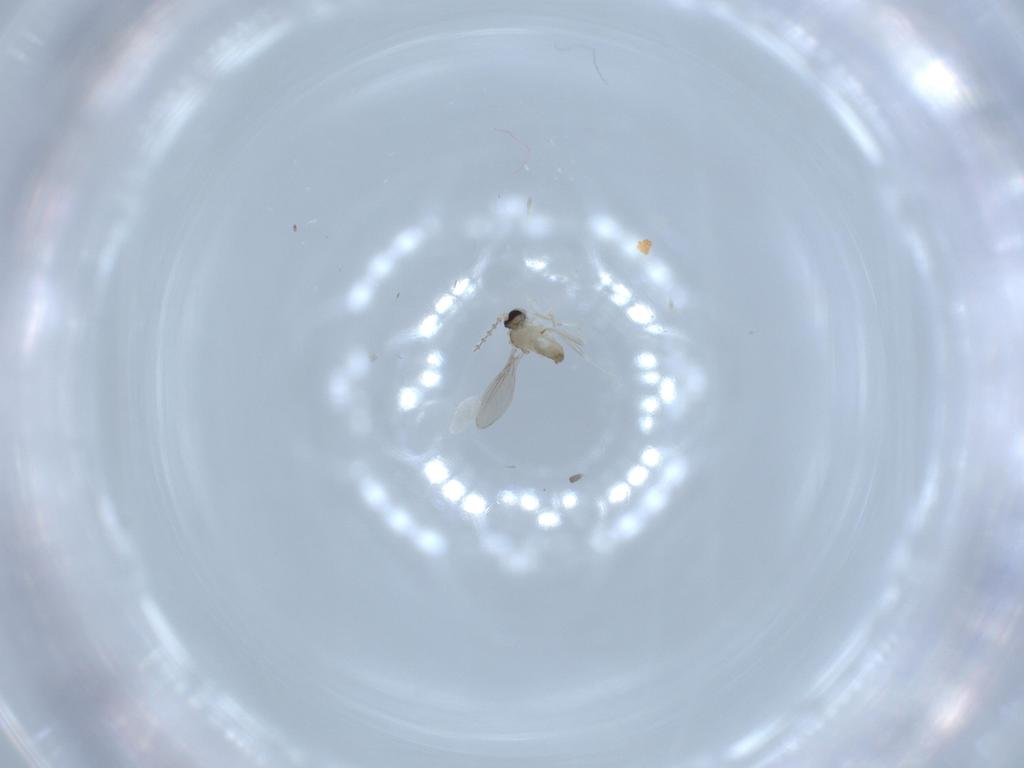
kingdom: Animalia
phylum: Arthropoda
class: Insecta
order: Diptera
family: Cecidomyiidae
